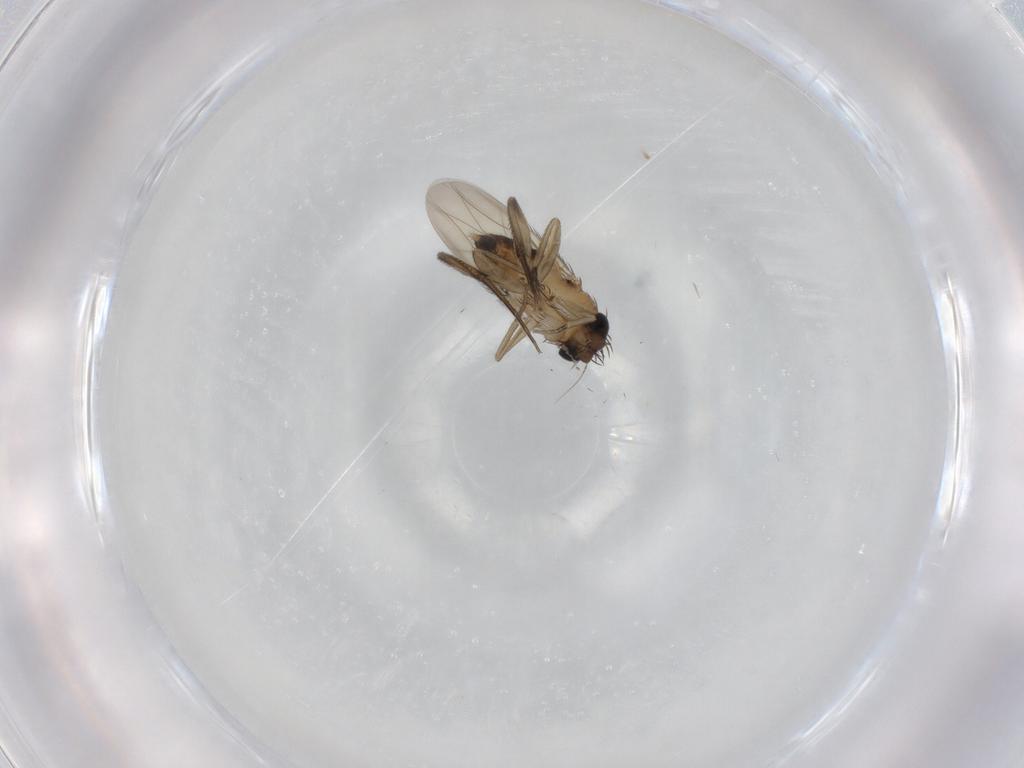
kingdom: Animalia
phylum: Arthropoda
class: Insecta
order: Diptera
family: Phoridae
